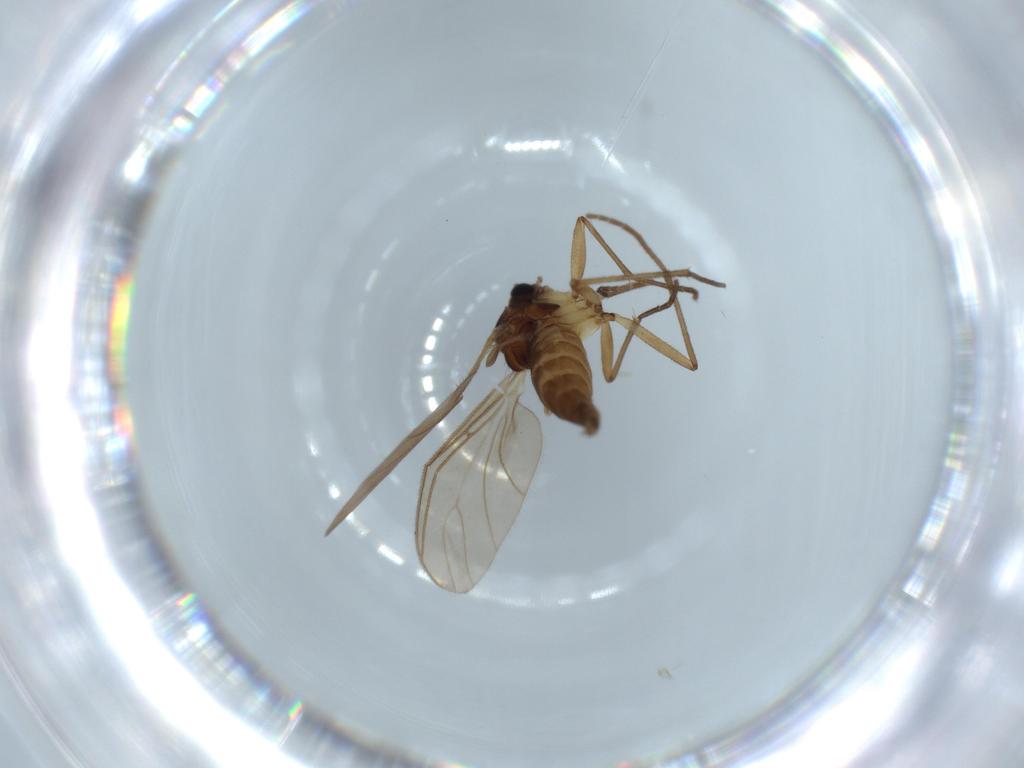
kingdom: Animalia
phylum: Arthropoda
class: Insecta
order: Diptera
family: Sciaridae
